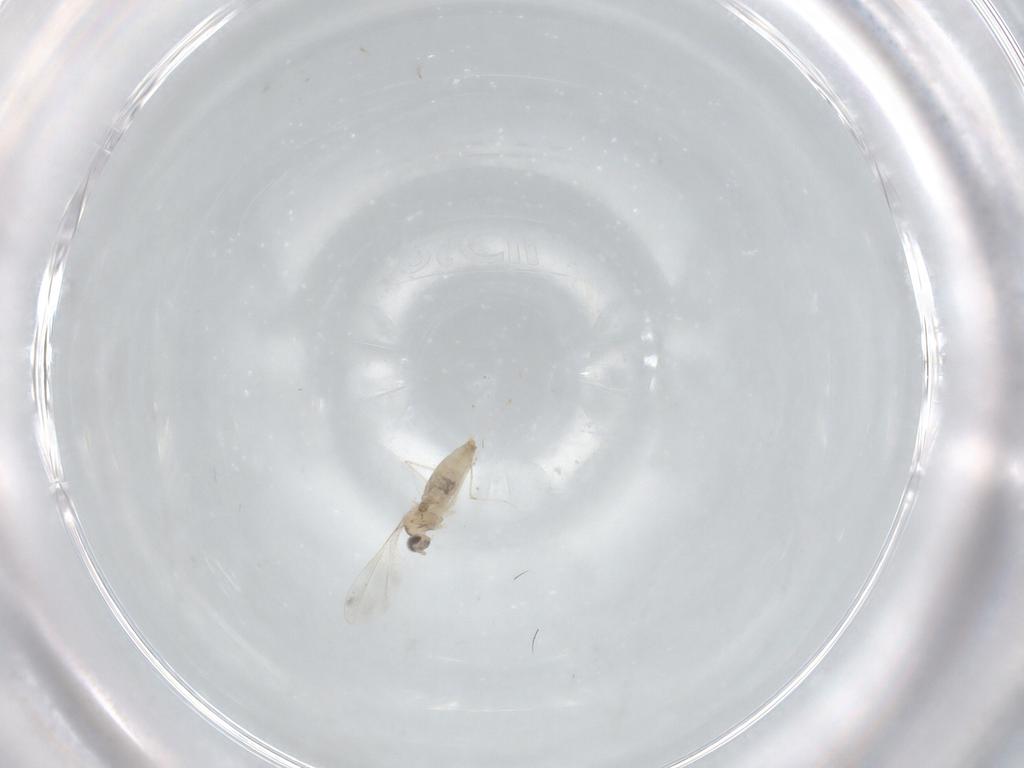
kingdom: Animalia
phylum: Arthropoda
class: Insecta
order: Diptera
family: Cecidomyiidae
